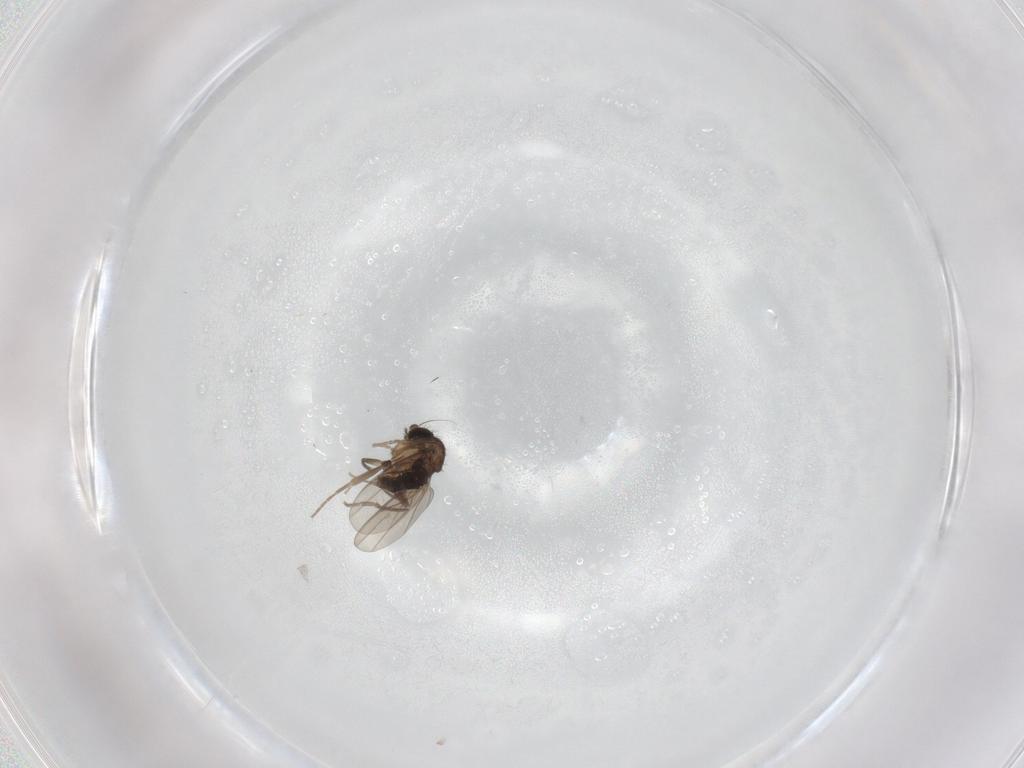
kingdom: Animalia
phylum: Arthropoda
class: Insecta
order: Diptera
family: Phoridae
